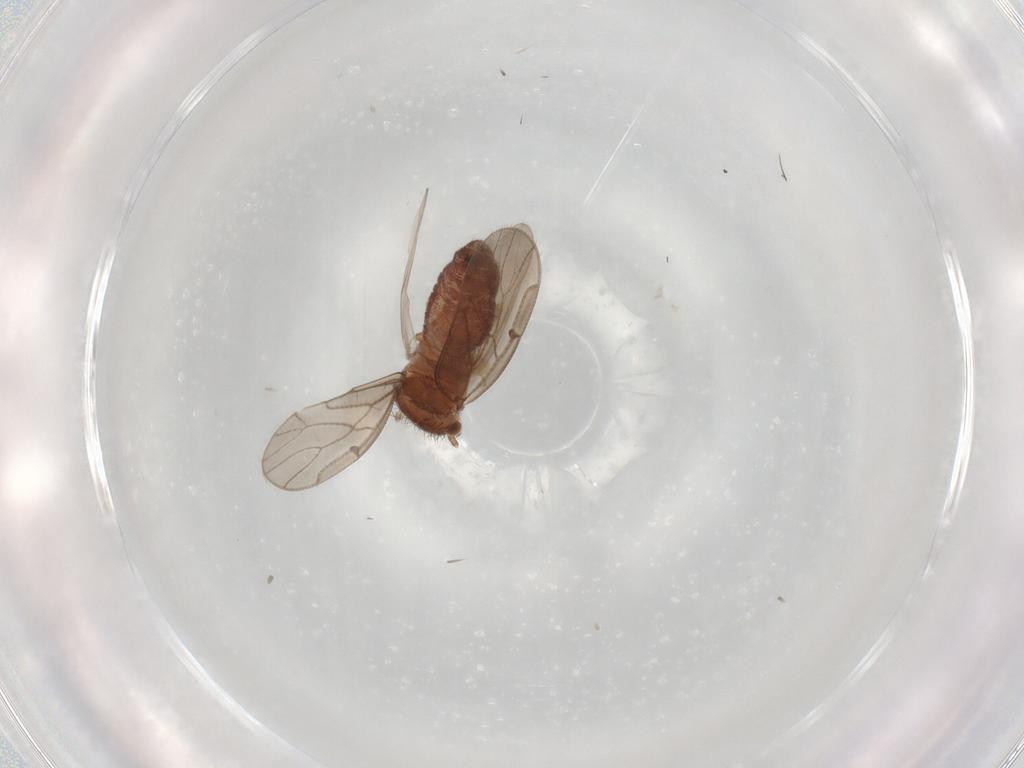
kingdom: Animalia
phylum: Arthropoda
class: Insecta
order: Psocodea
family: Ectopsocidae
